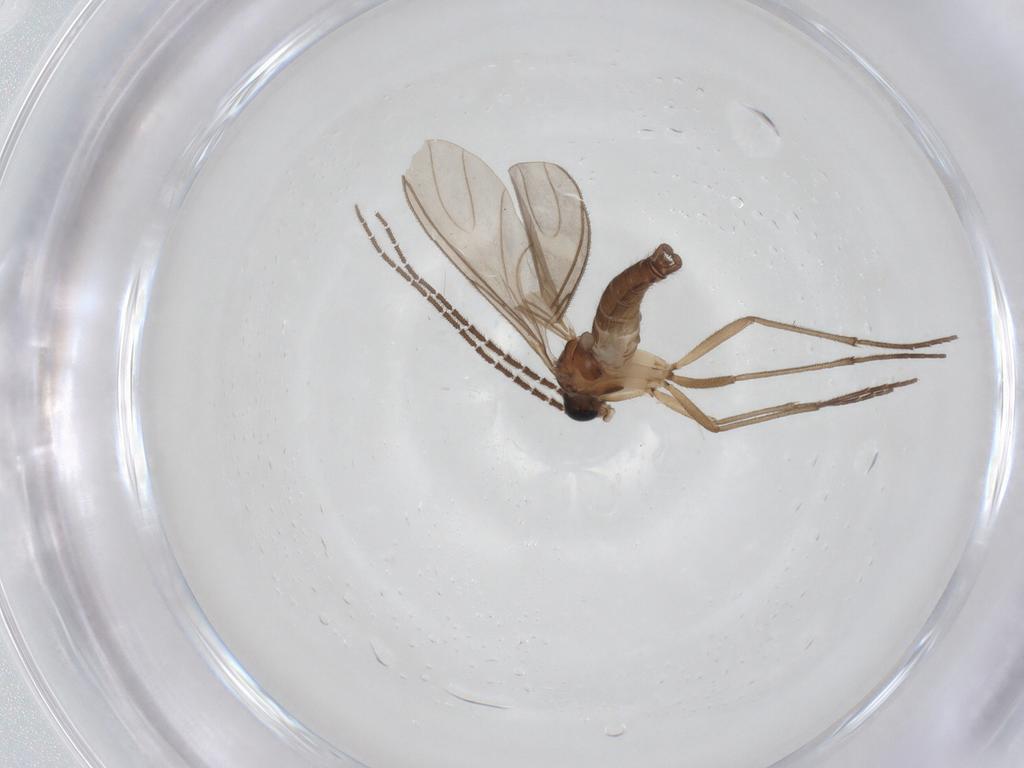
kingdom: Animalia
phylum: Arthropoda
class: Insecta
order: Diptera
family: Sciaridae
